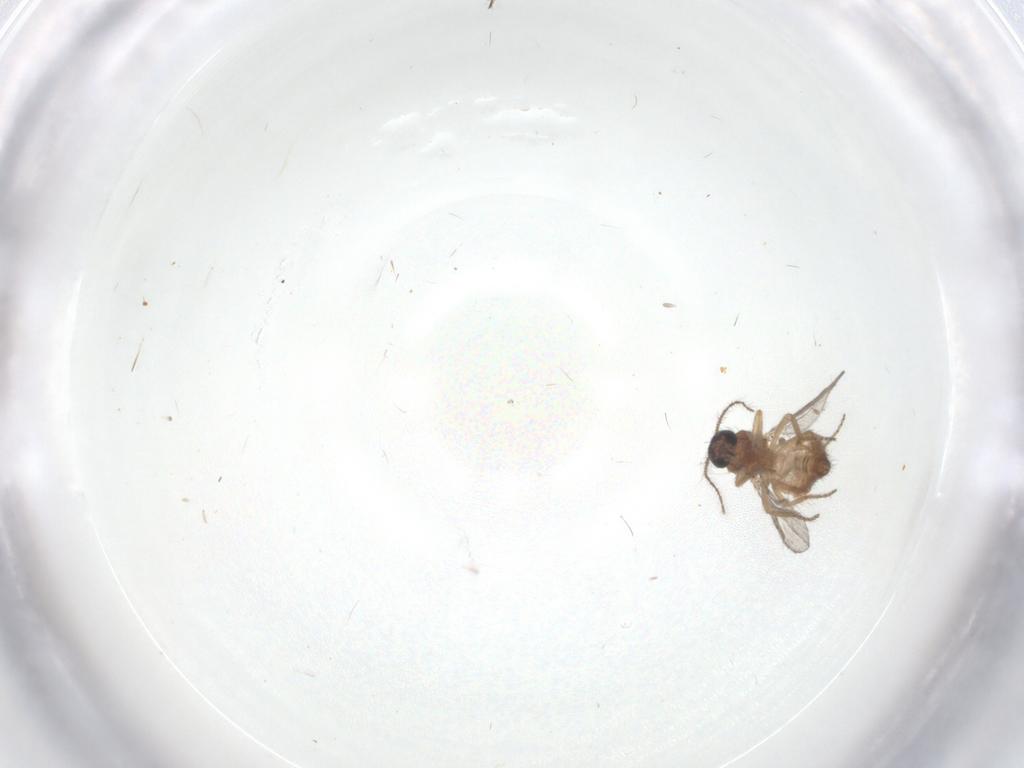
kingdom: Animalia
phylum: Arthropoda
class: Insecta
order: Diptera
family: Ceratopogonidae
